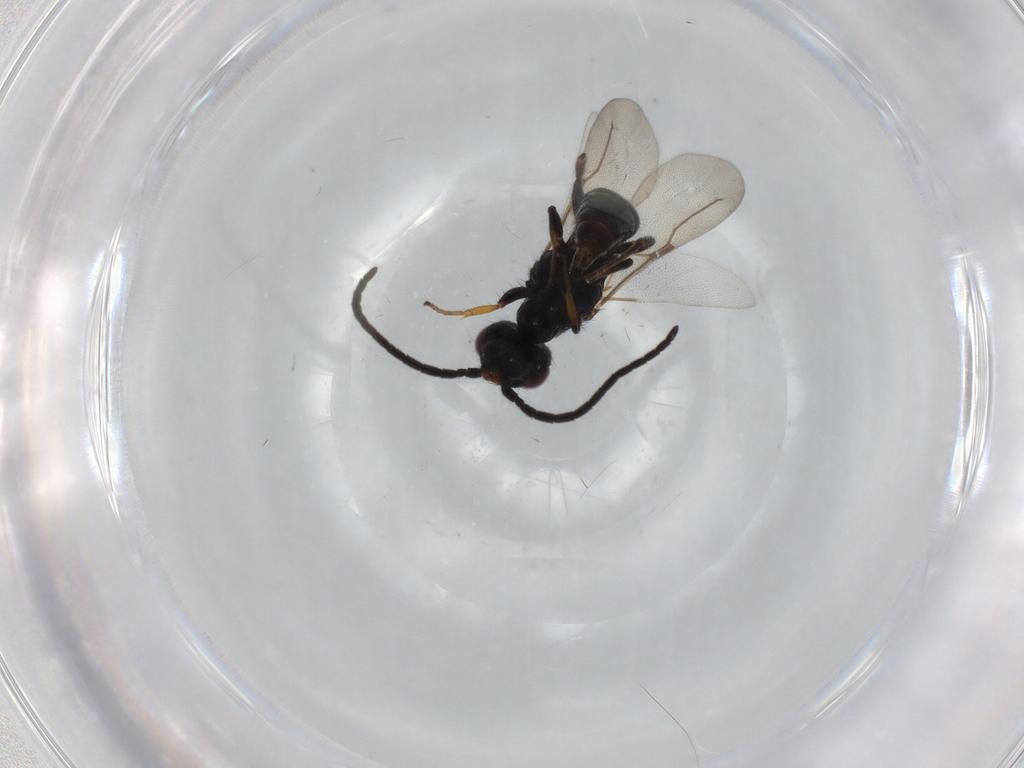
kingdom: Animalia
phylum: Arthropoda
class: Insecta
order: Hymenoptera
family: Bethylidae
